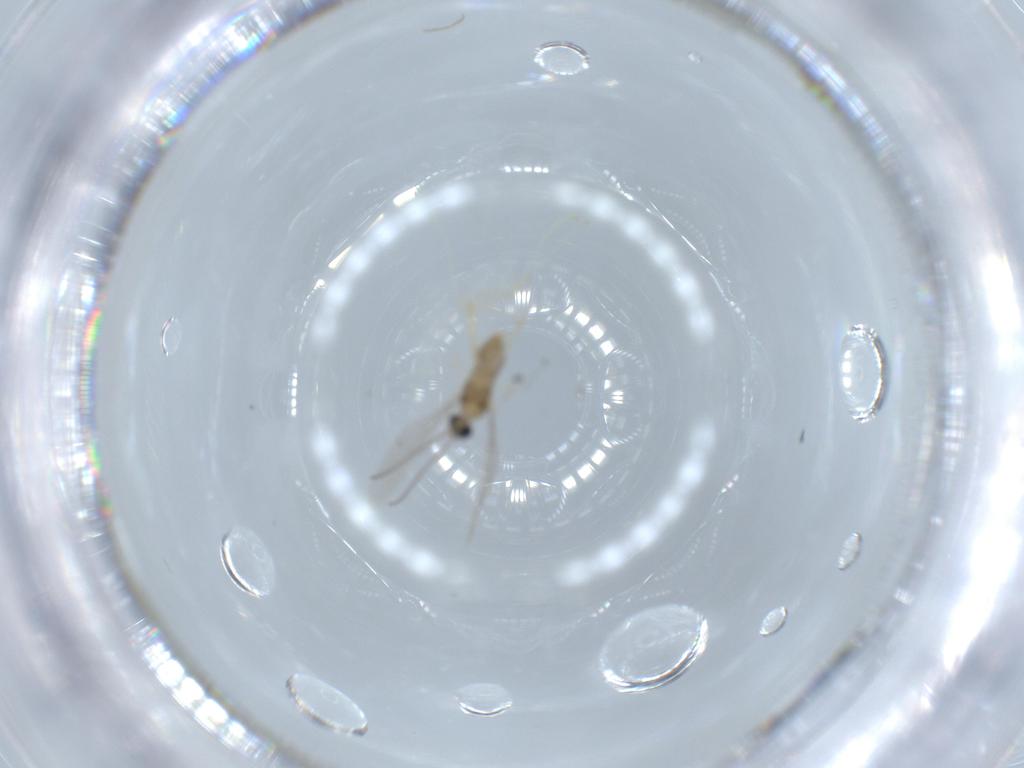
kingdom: Animalia
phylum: Arthropoda
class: Insecta
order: Diptera
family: Cecidomyiidae
